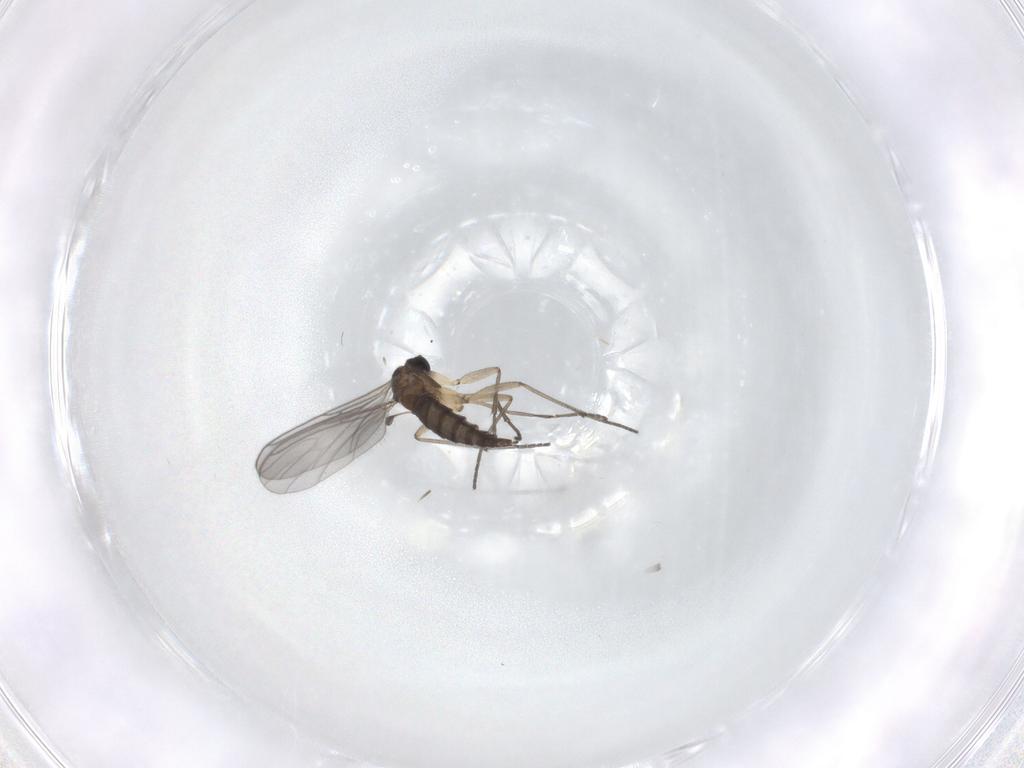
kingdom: Animalia
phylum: Arthropoda
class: Insecta
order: Diptera
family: Sciaridae
